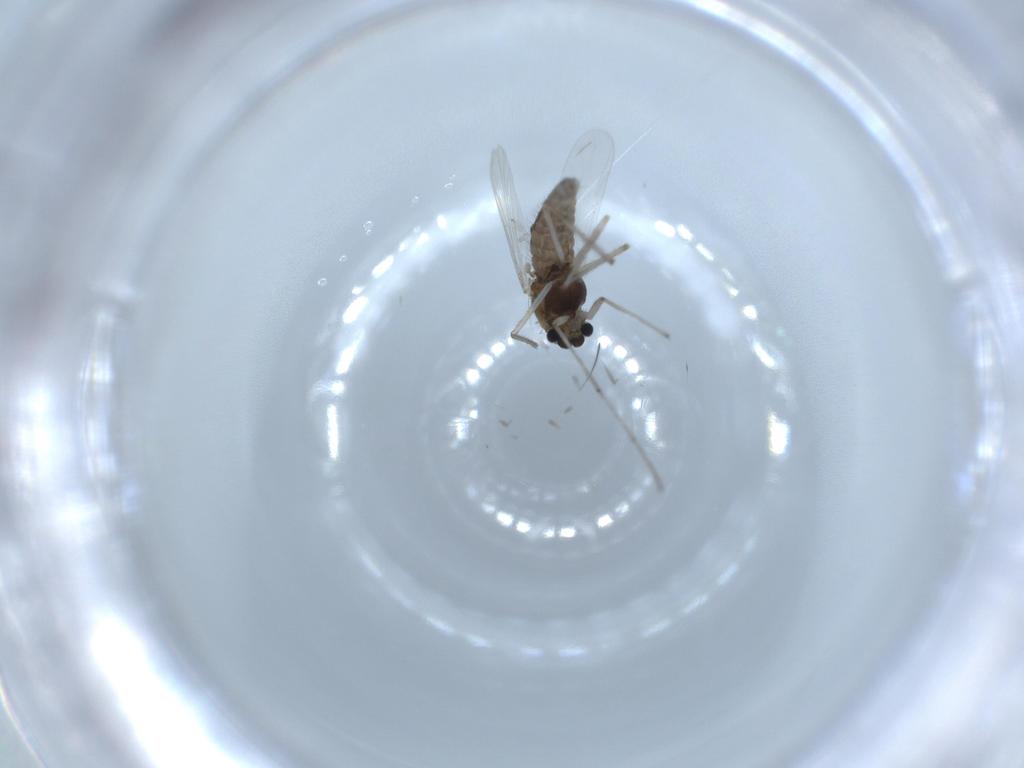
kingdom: Animalia
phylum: Arthropoda
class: Insecta
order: Diptera
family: Chironomidae
